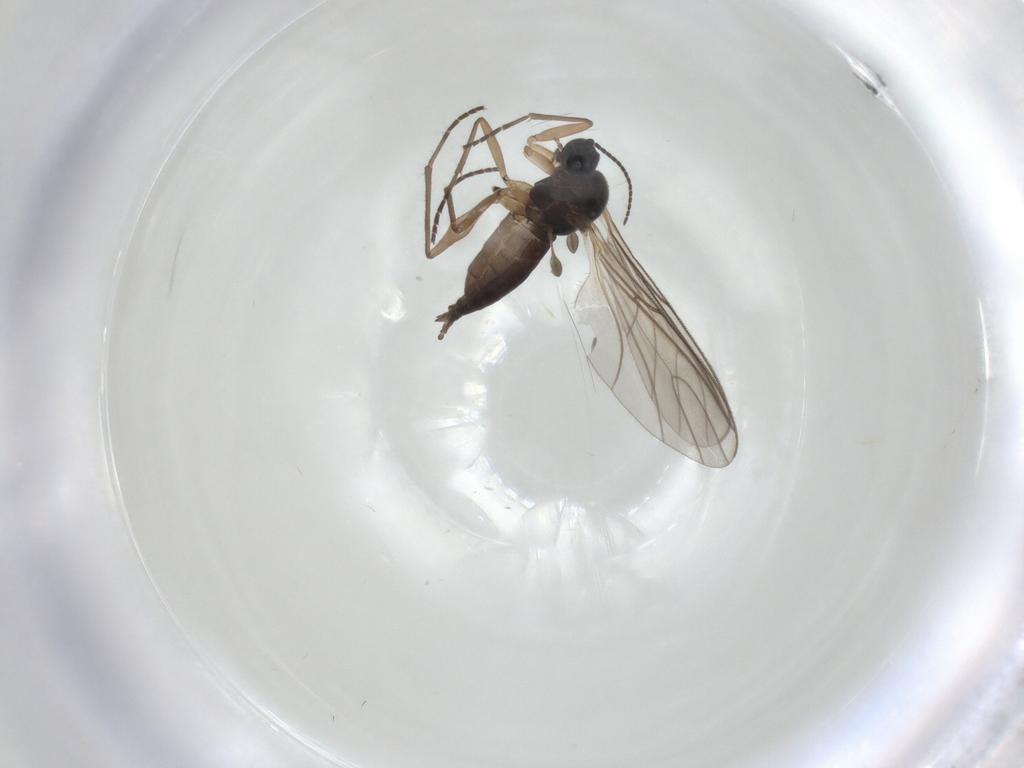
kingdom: Animalia
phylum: Arthropoda
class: Insecta
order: Diptera
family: Sciaridae
